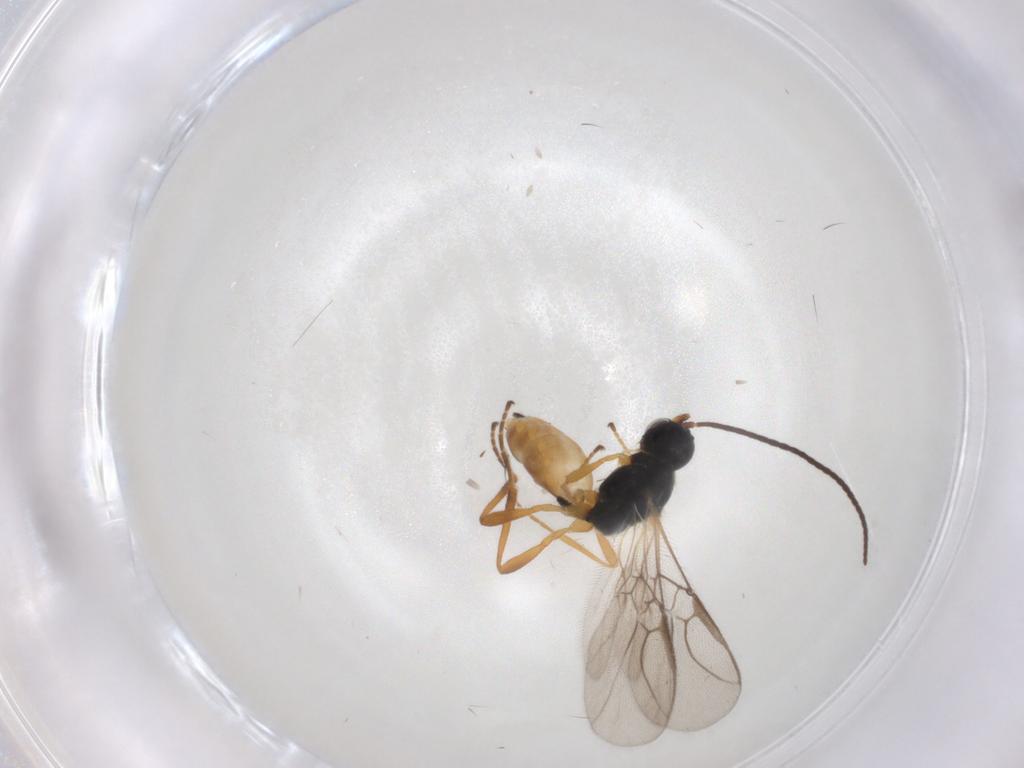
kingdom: Animalia
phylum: Arthropoda
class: Insecta
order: Hymenoptera
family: Braconidae
